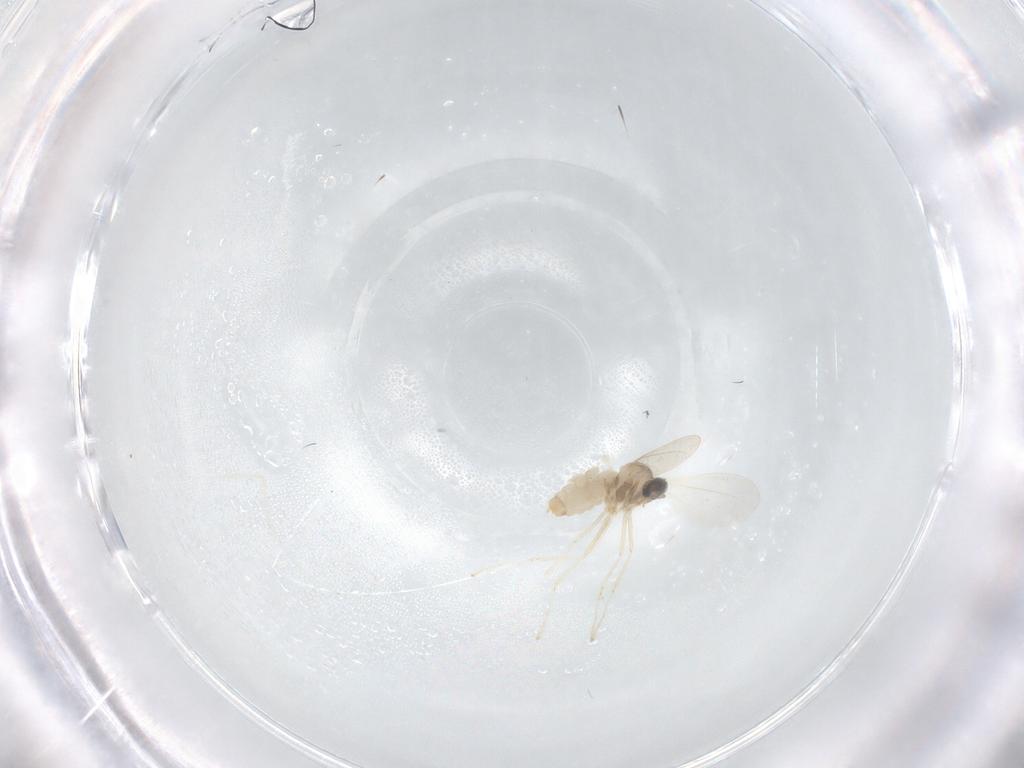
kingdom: Animalia
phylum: Arthropoda
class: Insecta
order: Diptera
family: Cecidomyiidae
